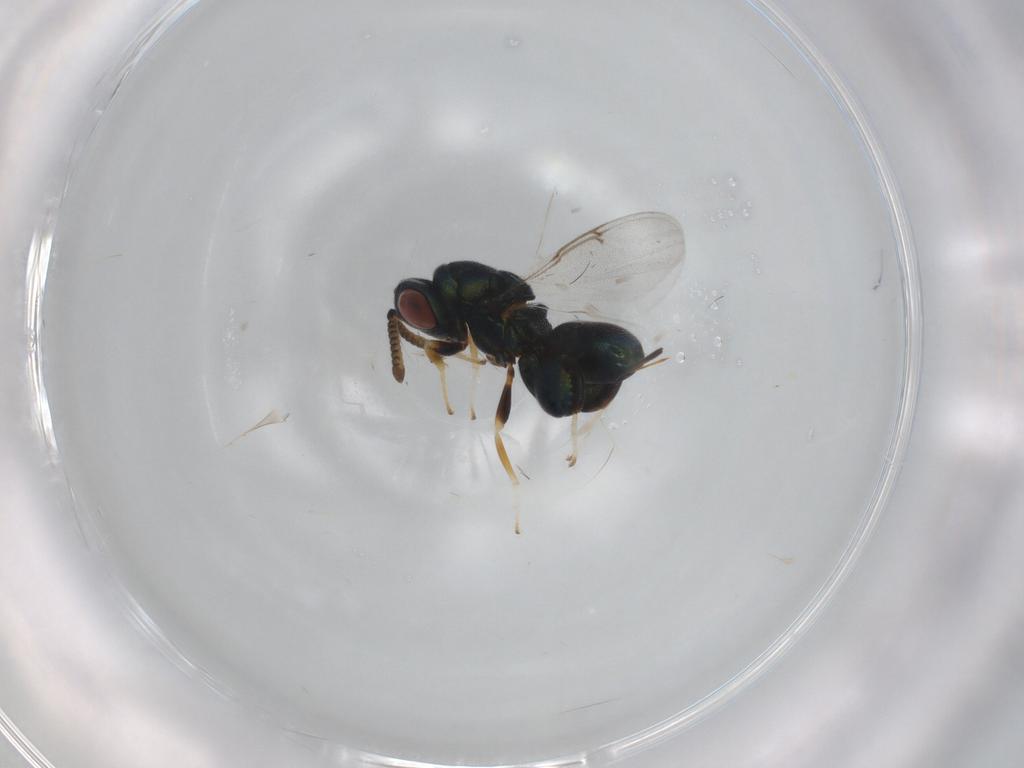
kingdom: Animalia
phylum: Arthropoda
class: Insecta
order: Hymenoptera
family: Torymidae
